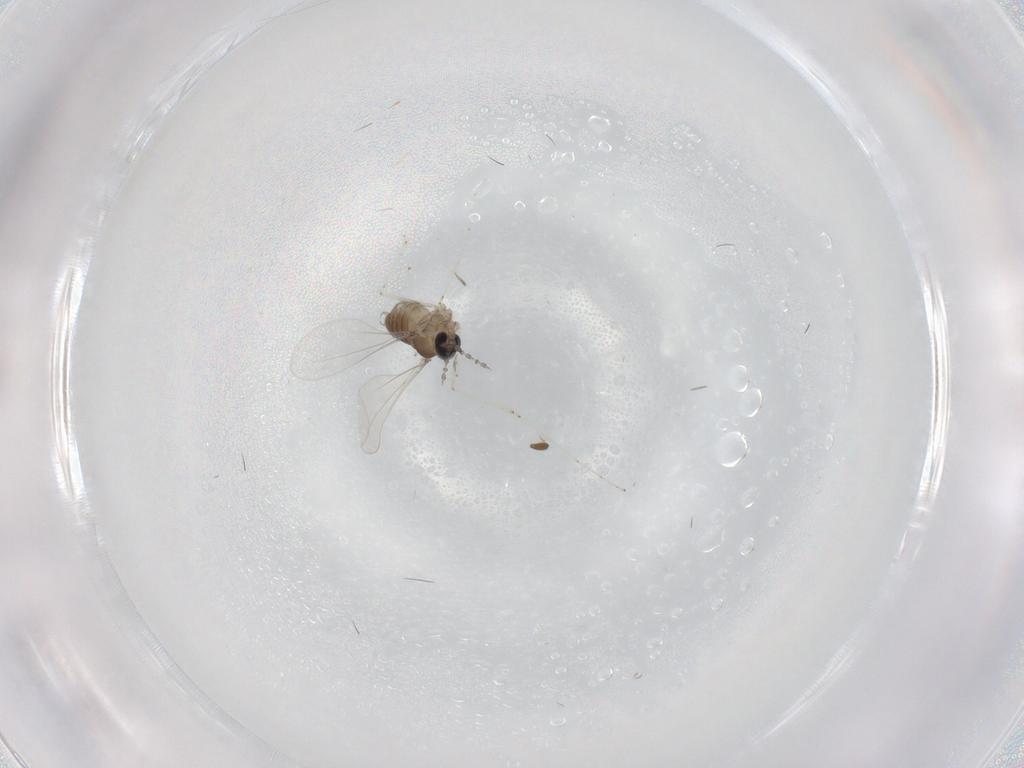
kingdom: Animalia
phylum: Arthropoda
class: Insecta
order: Diptera
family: Cecidomyiidae
